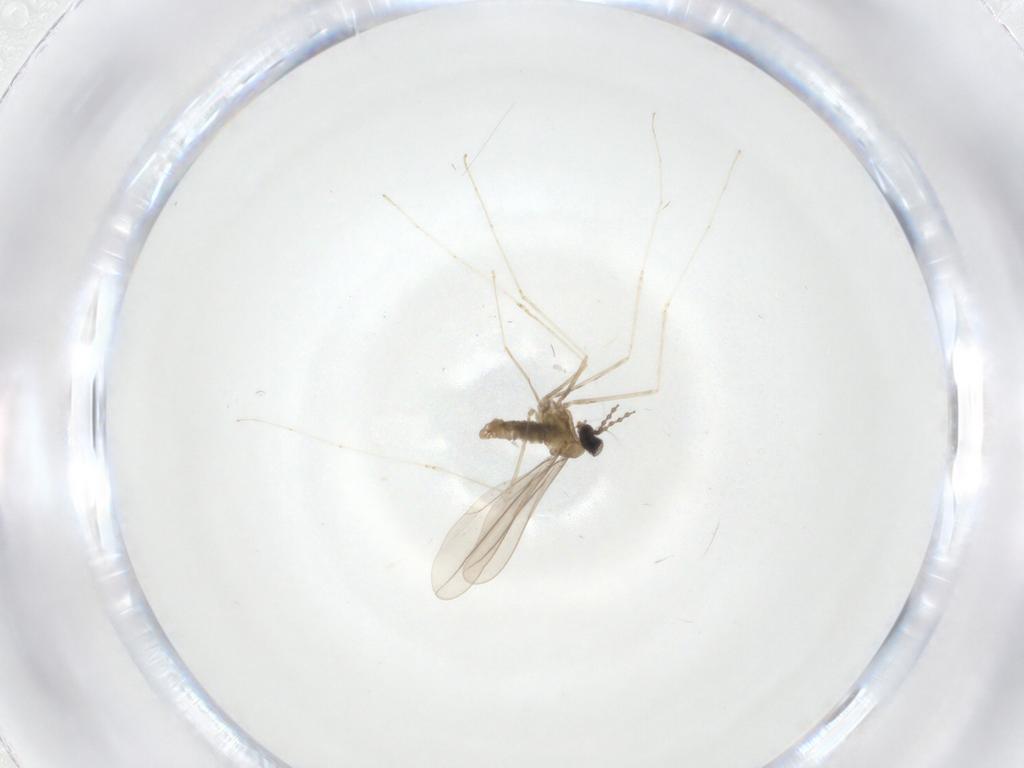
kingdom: Animalia
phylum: Arthropoda
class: Insecta
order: Diptera
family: Cecidomyiidae
